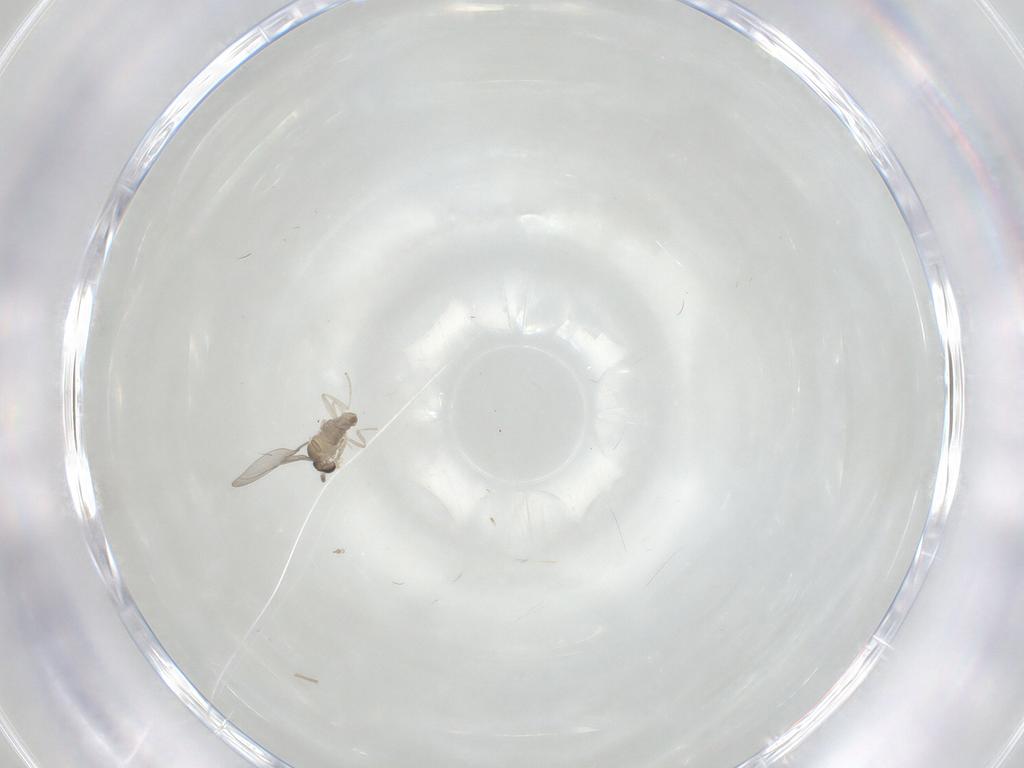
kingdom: Animalia
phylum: Arthropoda
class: Insecta
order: Diptera
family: Cecidomyiidae
